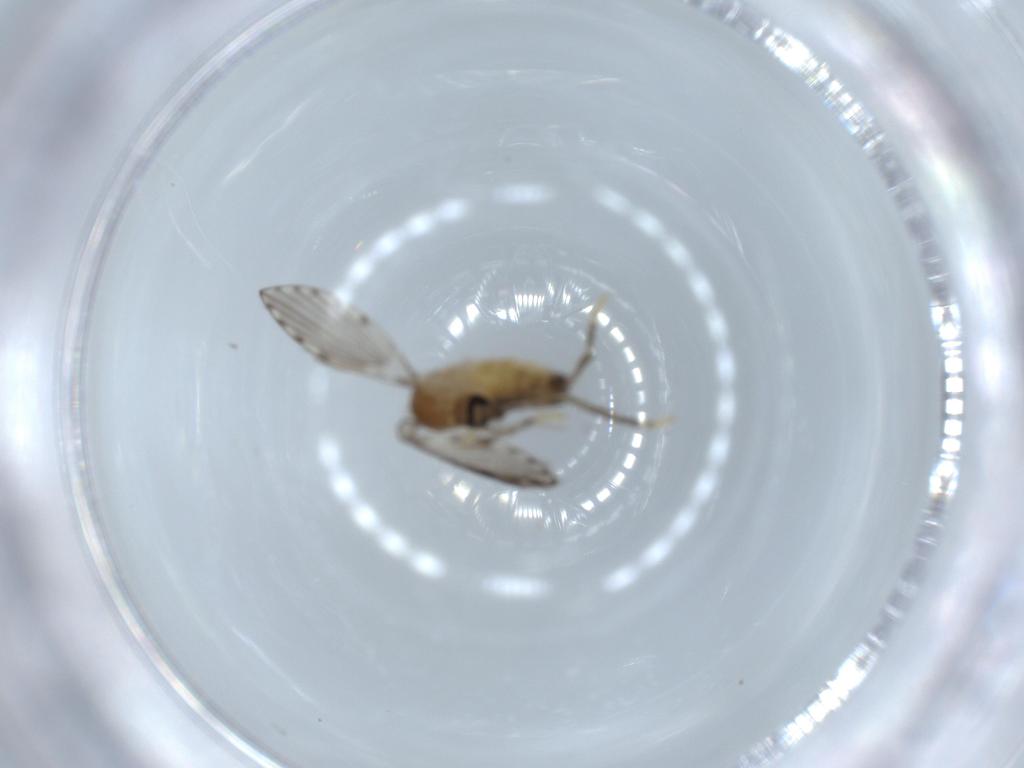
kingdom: Animalia
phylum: Arthropoda
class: Insecta
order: Diptera
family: Psychodidae
